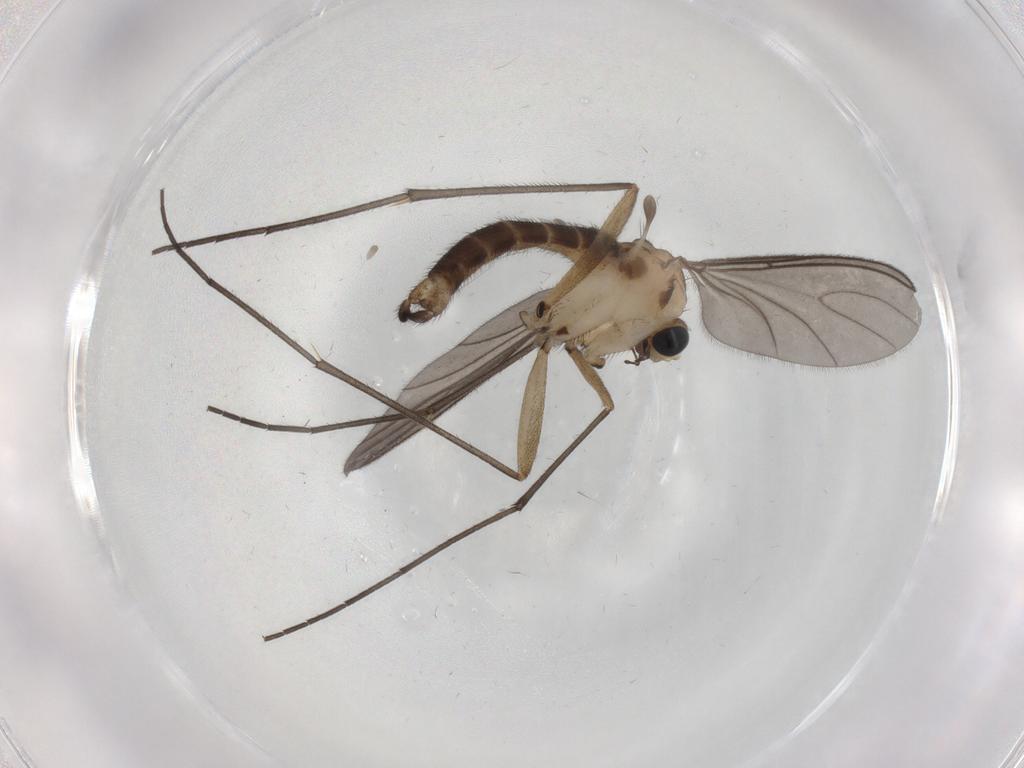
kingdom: Animalia
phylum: Arthropoda
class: Insecta
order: Diptera
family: Sciaridae
